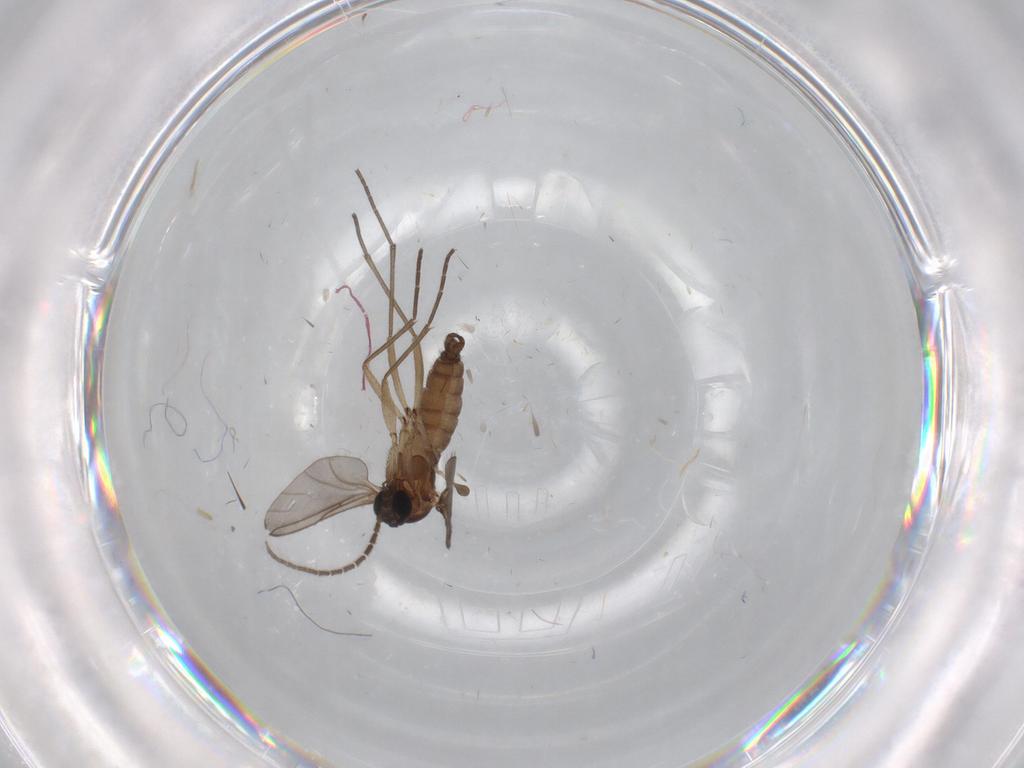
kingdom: Animalia
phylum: Arthropoda
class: Insecta
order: Diptera
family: Sciaridae
